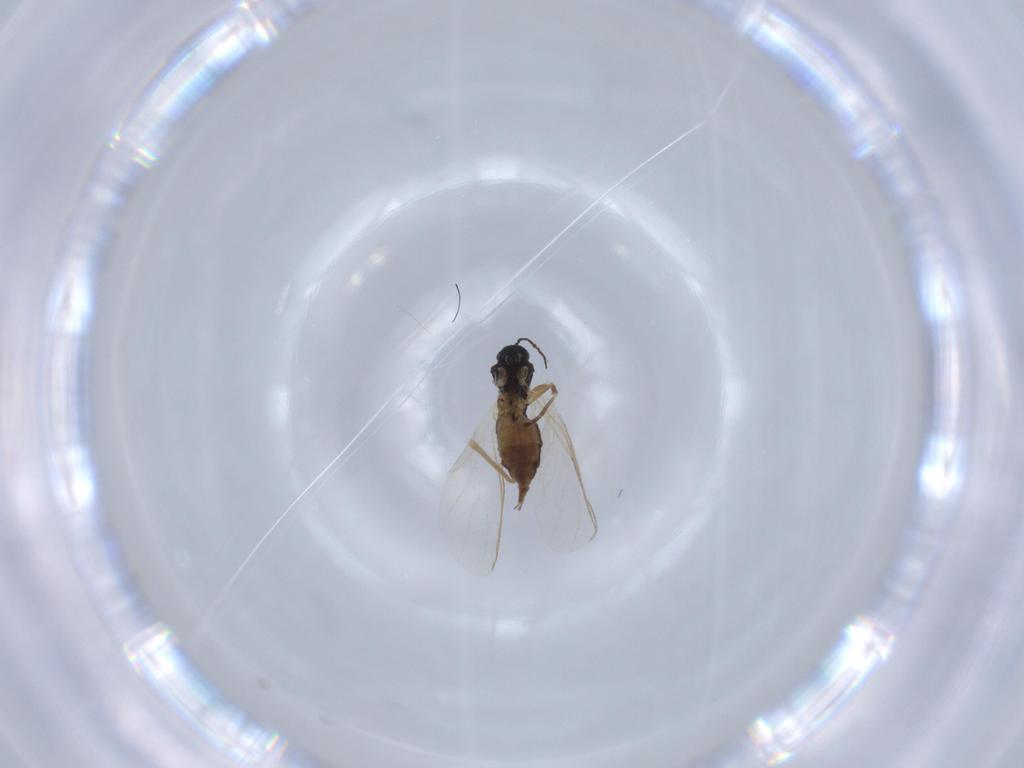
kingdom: Animalia
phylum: Arthropoda
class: Insecta
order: Diptera
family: Sciaridae
